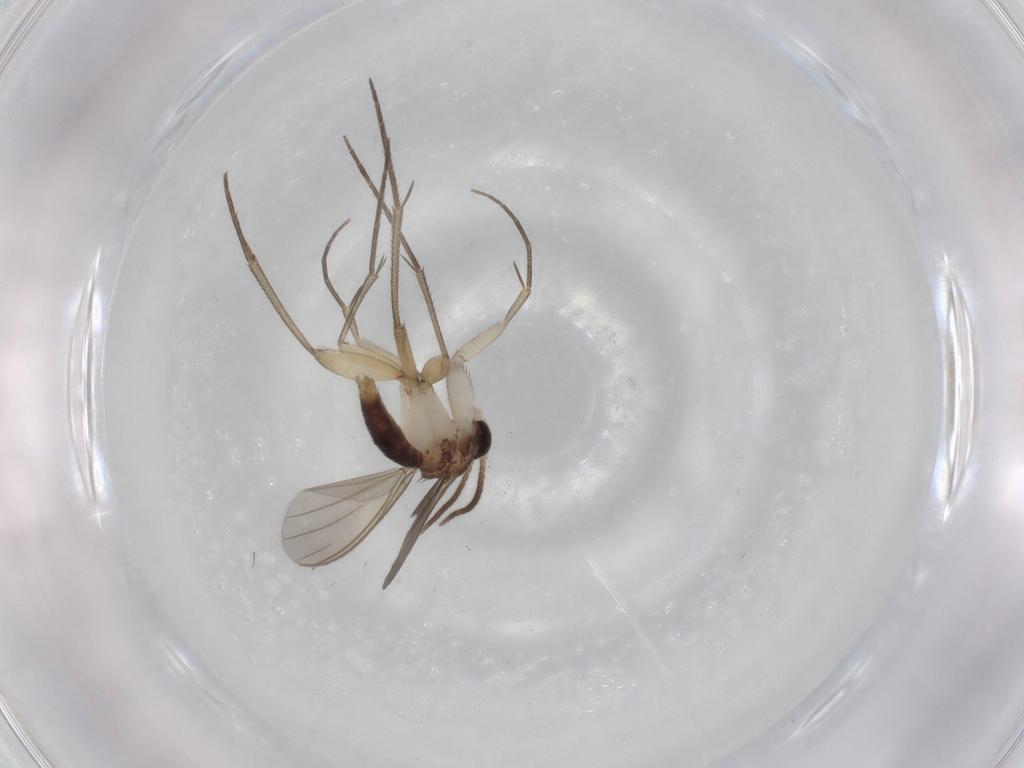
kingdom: Animalia
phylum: Arthropoda
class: Insecta
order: Diptera
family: Mycetophilidae
